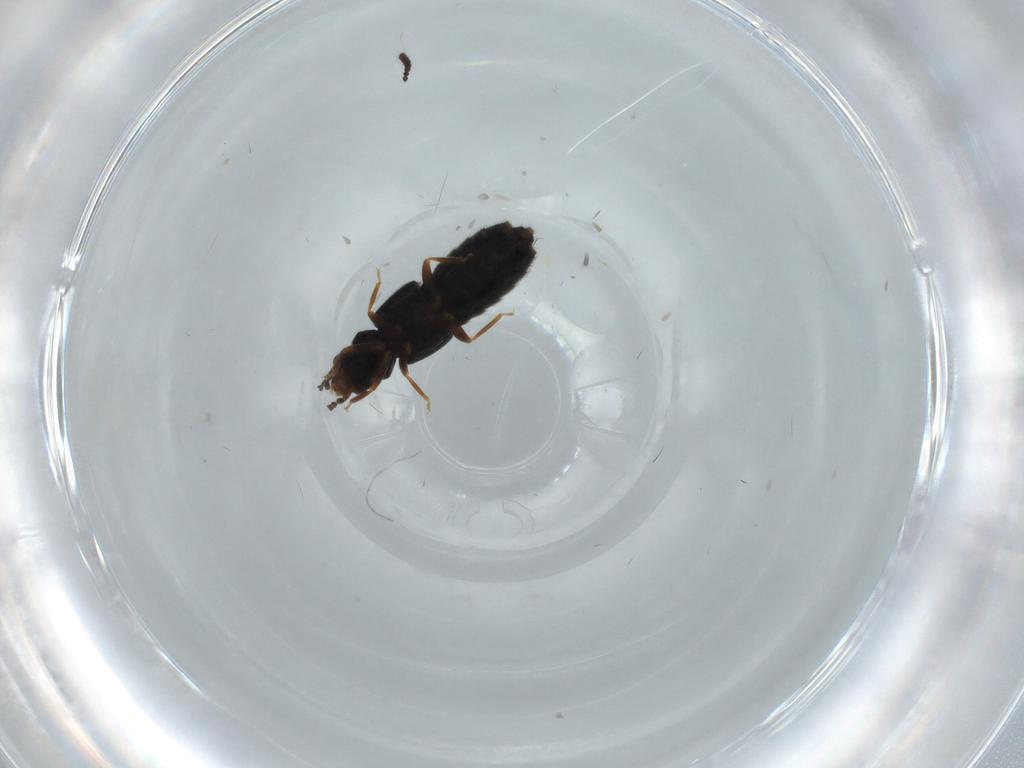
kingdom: Animalia
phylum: Arthropoda
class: Insecta
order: Coleoptera
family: Staphylinidae
